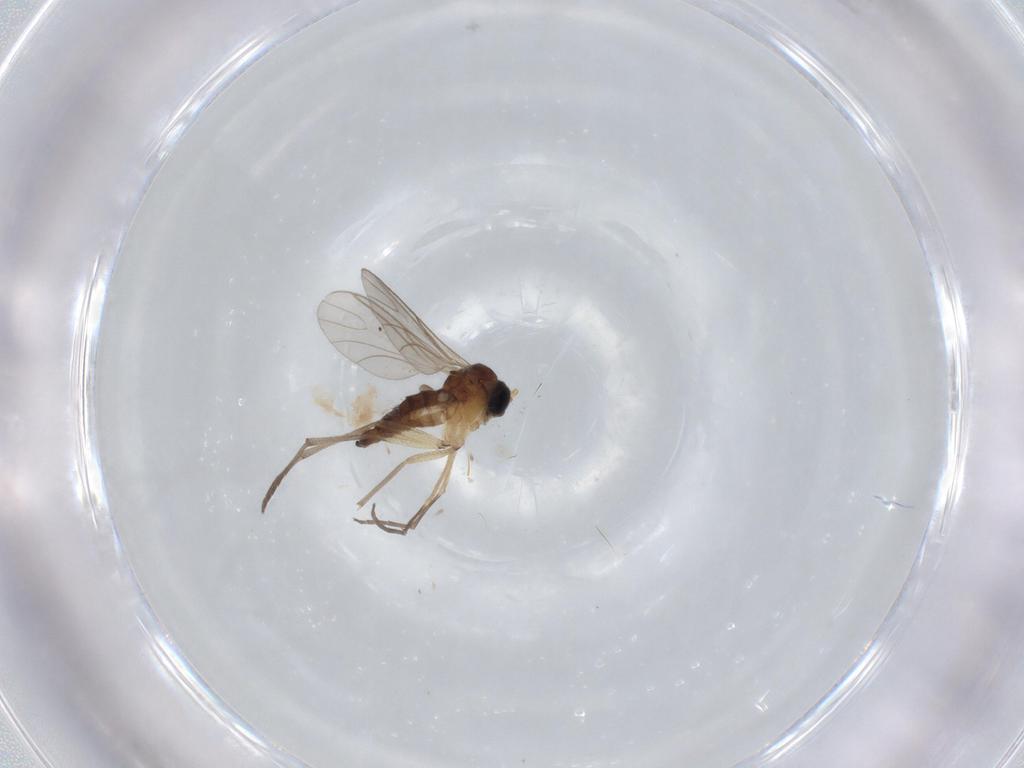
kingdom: Animalia
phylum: Arthropoda
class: Insecta
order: Diptera
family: Sciaridae
